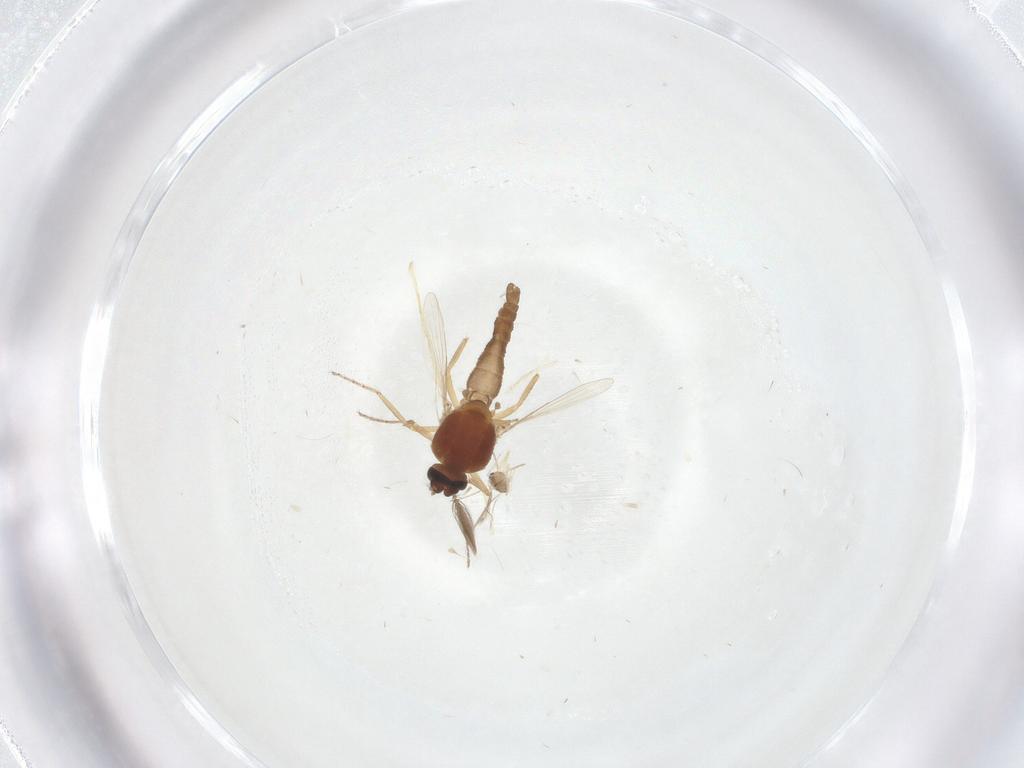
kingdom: Animalia
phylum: Arthropoda
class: Insecta
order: Diptera
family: Ceratopogonidae
